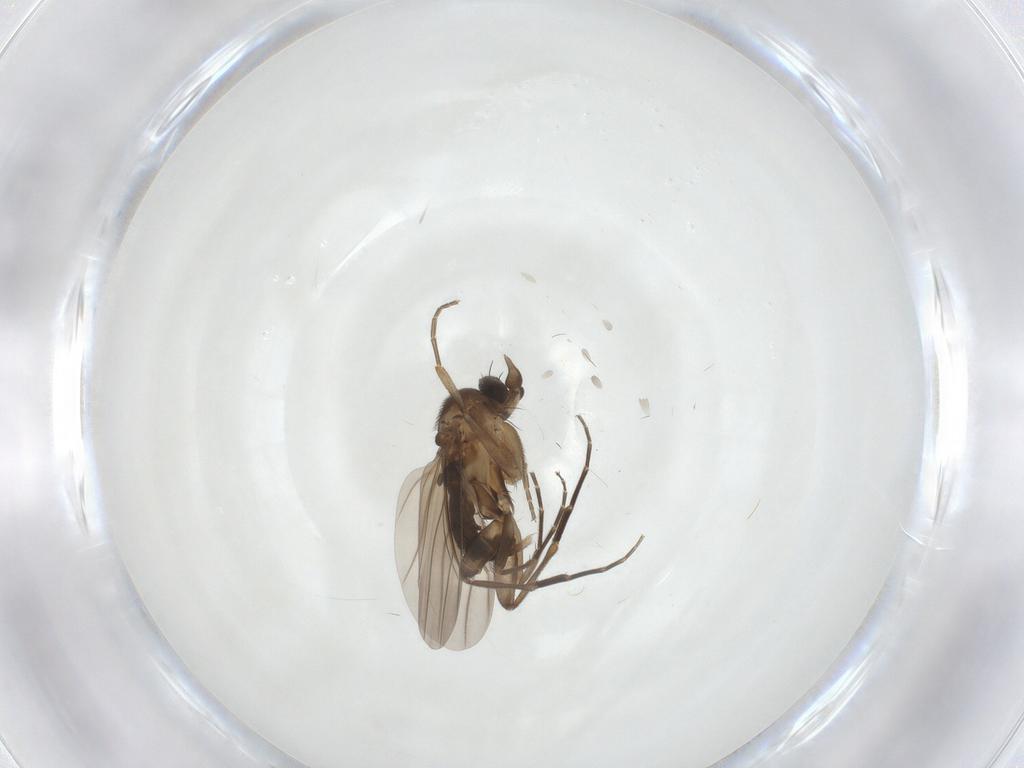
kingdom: Animalia
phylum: Arthropoda
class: Insecta
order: Diptera
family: Phoridae
